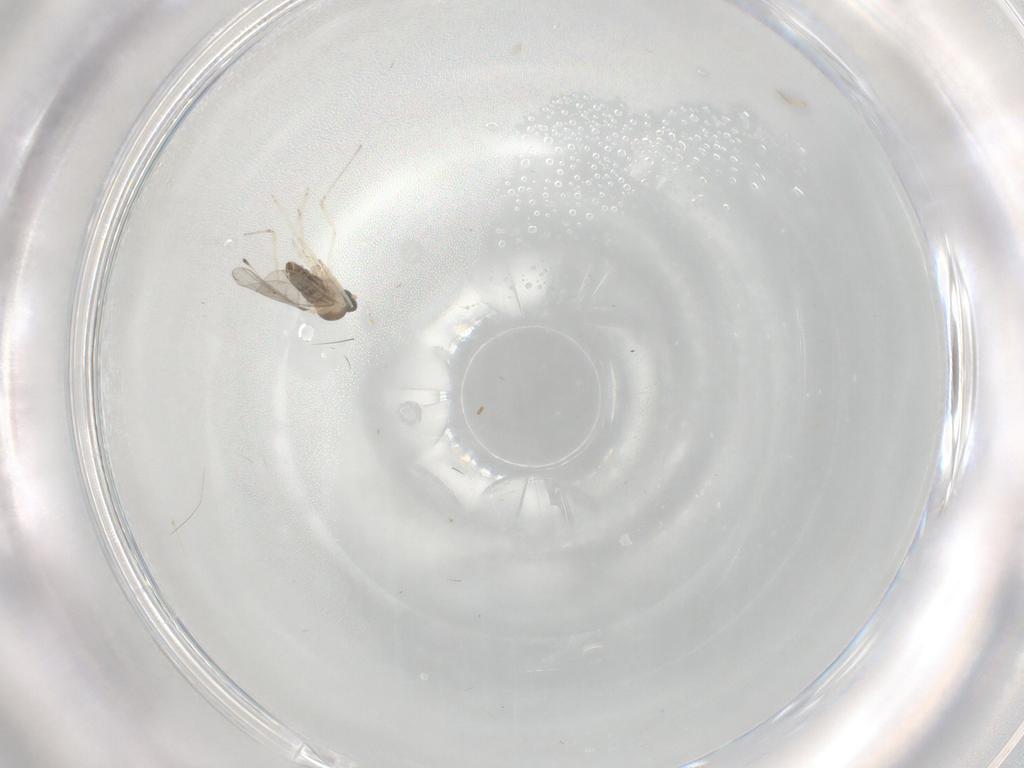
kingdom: Animalia
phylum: Arthropoda
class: Insecta
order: Diptera
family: Cecidomyiidae
